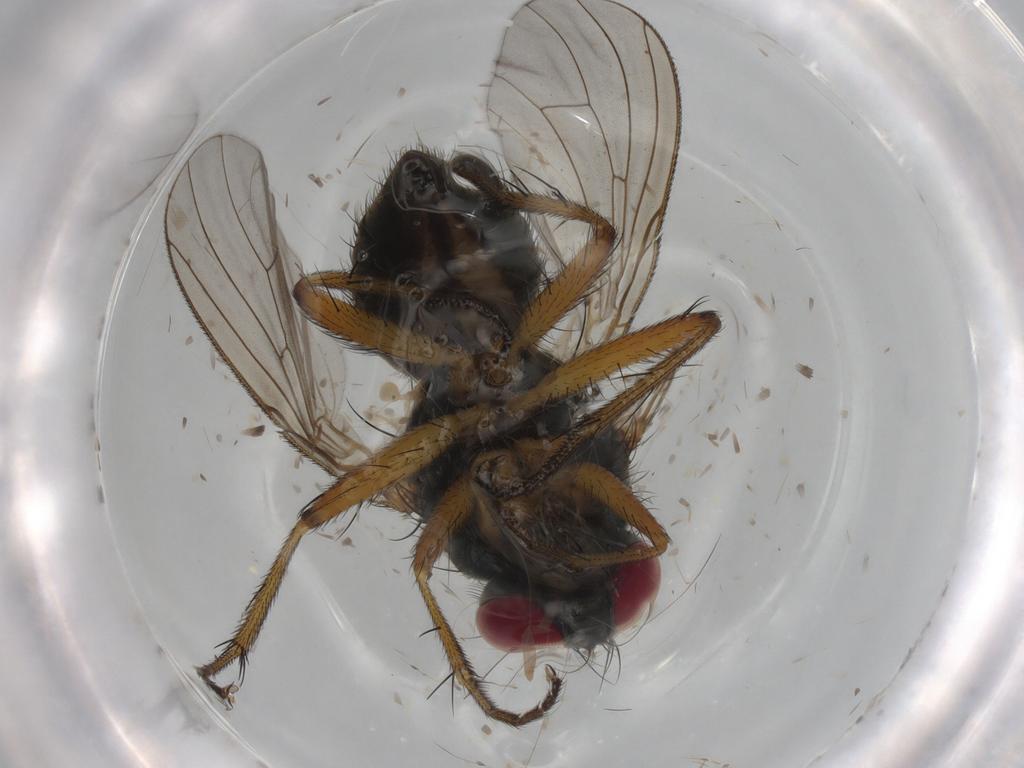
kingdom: Animalia
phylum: Arthropoda
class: Insecta
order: Diptera
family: Muscidae
